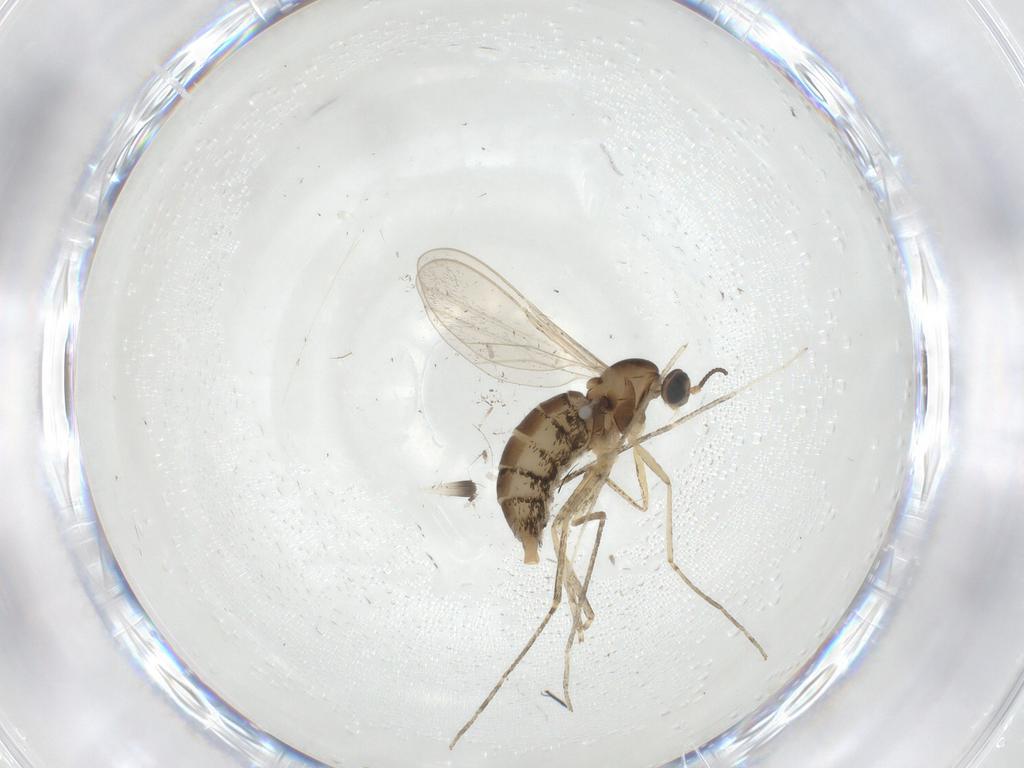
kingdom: Animalia
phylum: Arthropoda
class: Insecta
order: Diptera
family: Cecidomyiidae
